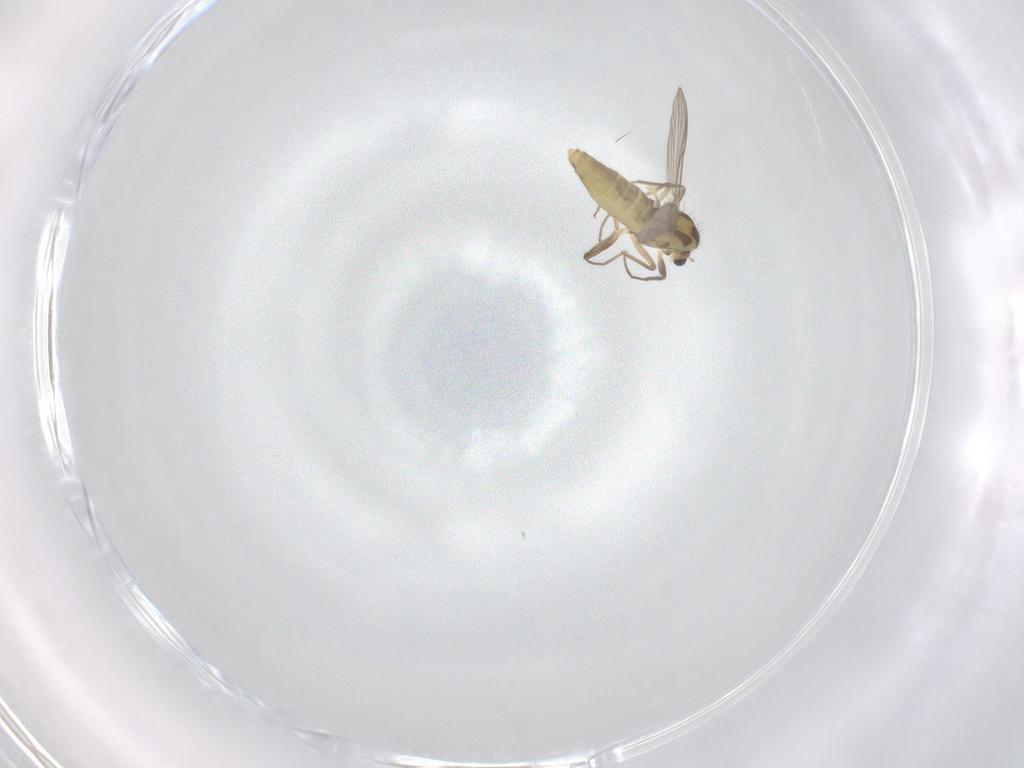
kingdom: Animalia
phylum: Arthropoda
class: Insecta
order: Diptera
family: Chironomidae
